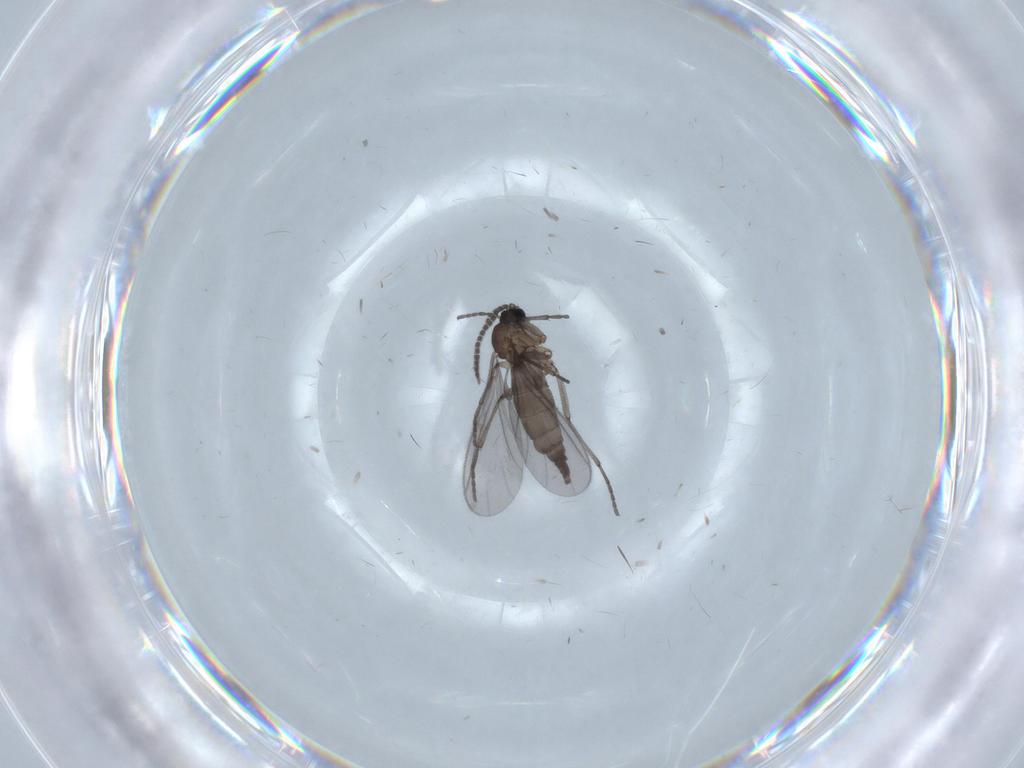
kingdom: Animalia
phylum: Arthropoda
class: Insecta
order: Diptera
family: Sciaridae
